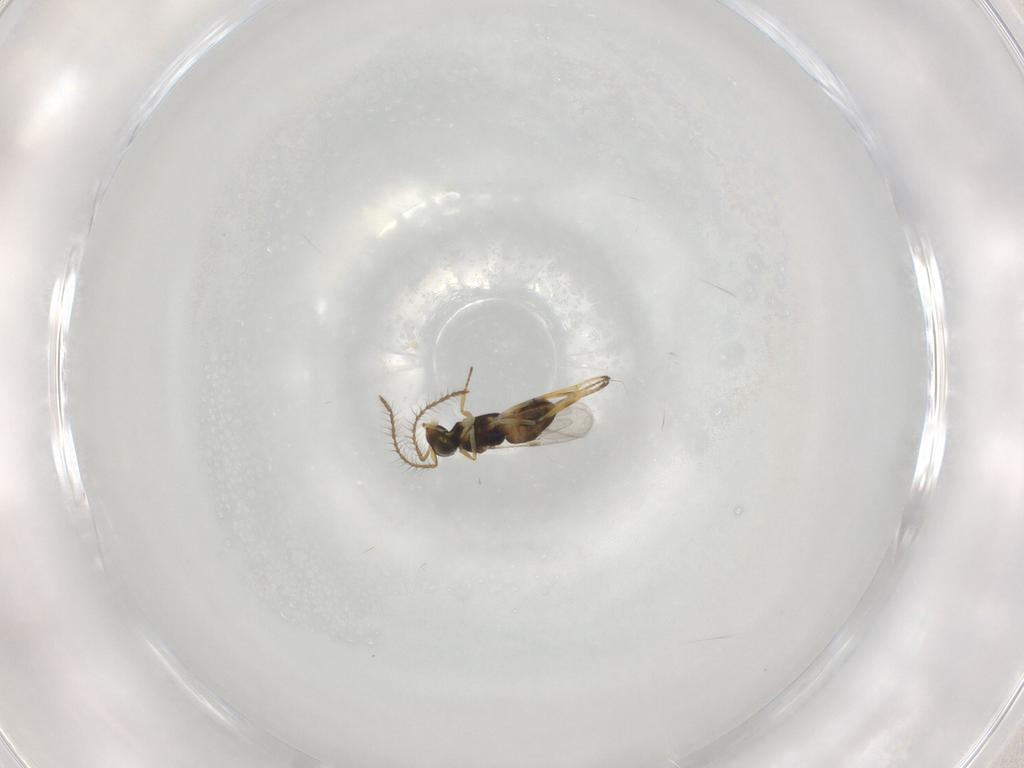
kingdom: Animalia
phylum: Arthropoda
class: Insecta
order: Hymenoptera
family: Encyrtidae
